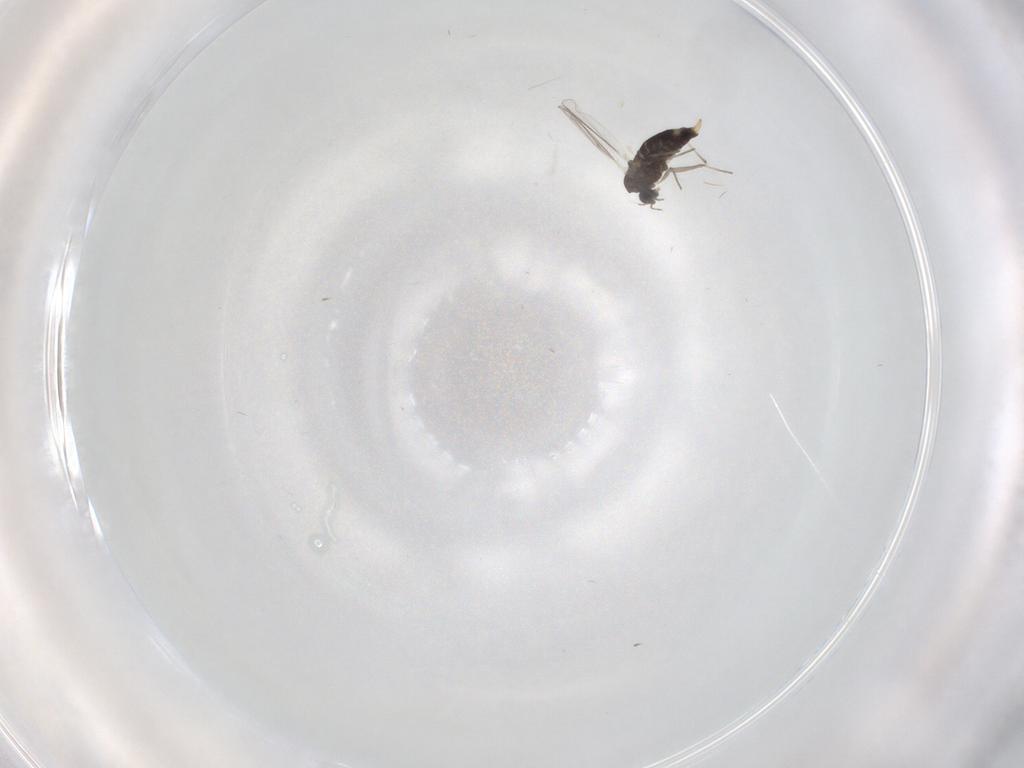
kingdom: Animalia
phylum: Arthropoda
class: Insecta
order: Diptera
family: Chironomidae
